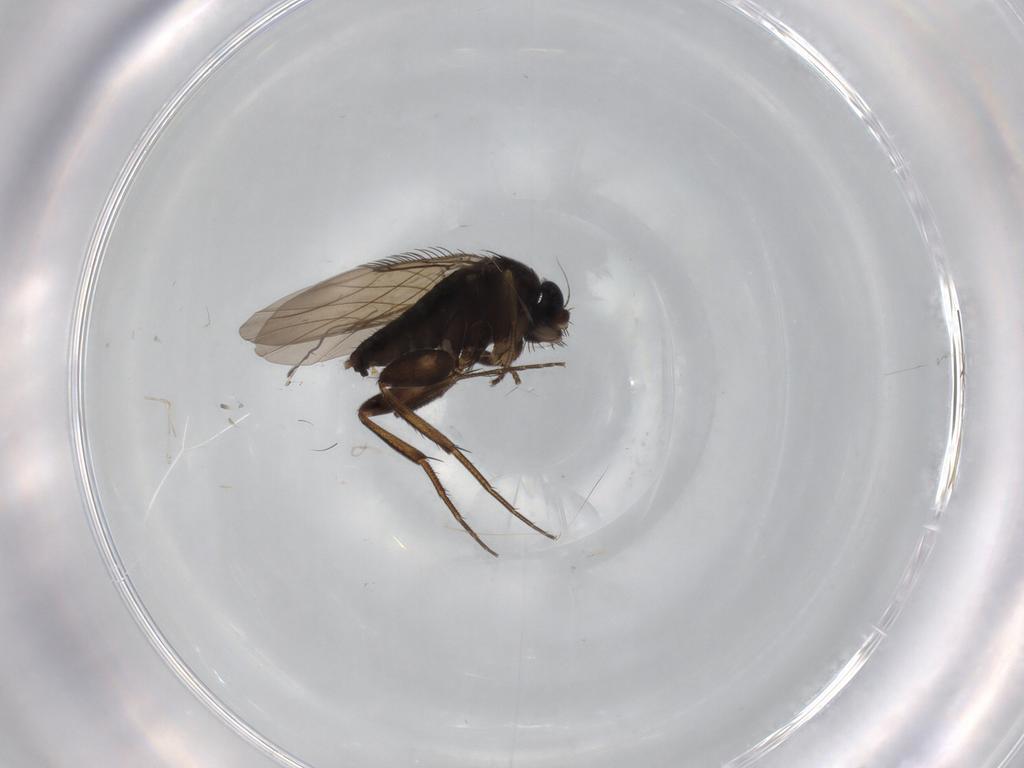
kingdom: Animalia
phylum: Arthropoda
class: Insecta
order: Diptera
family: Phoridae
